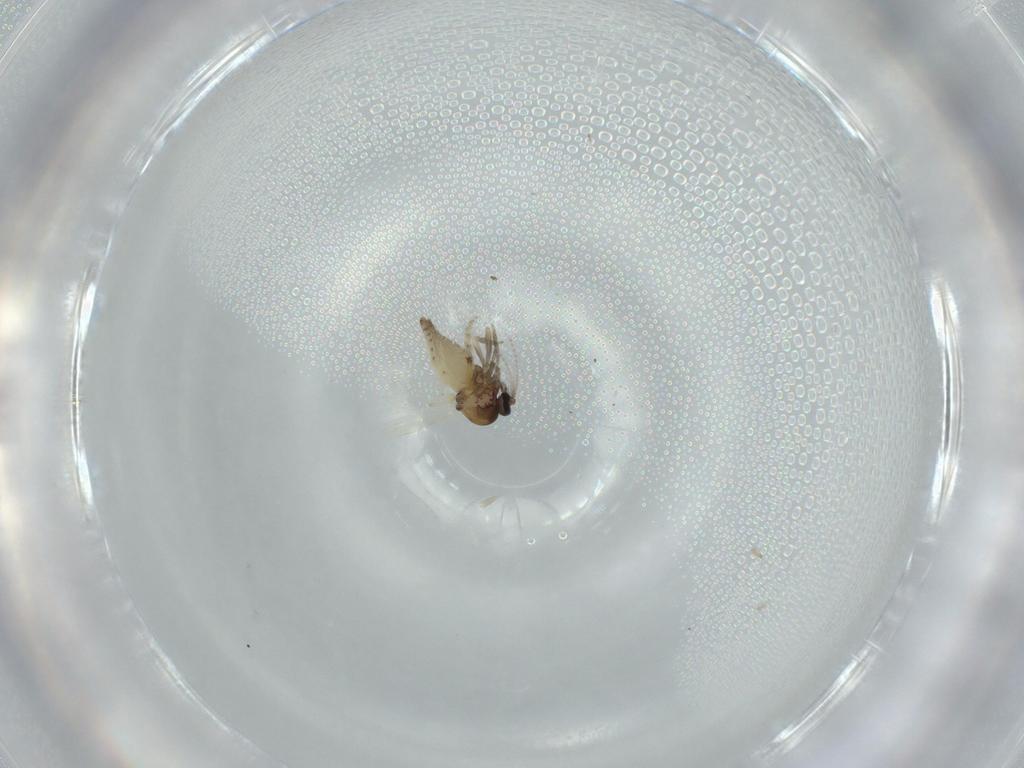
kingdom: Animalia
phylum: Arthropoda
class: Insecta
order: Diptera
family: Ceratopogonidae
